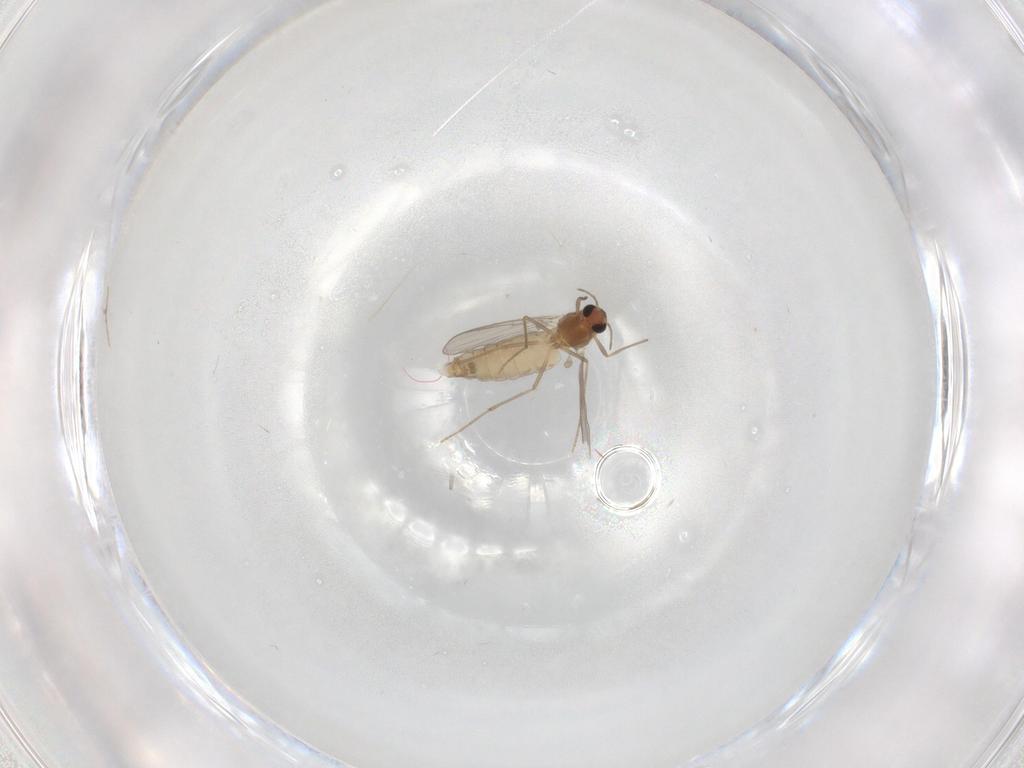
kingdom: Animalia
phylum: Arthropoda
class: Insecta
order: Diptera
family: Chironomidae
